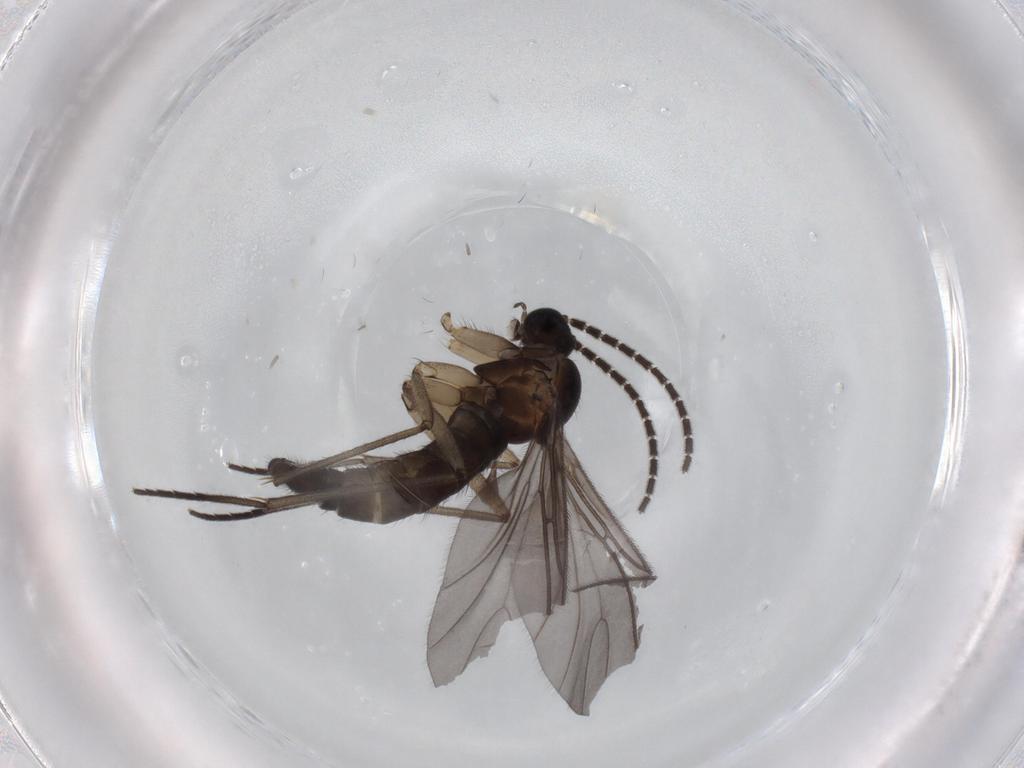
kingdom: Animalia
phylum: Arthropoda
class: Insecta
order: Diptera
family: Sciaridae
